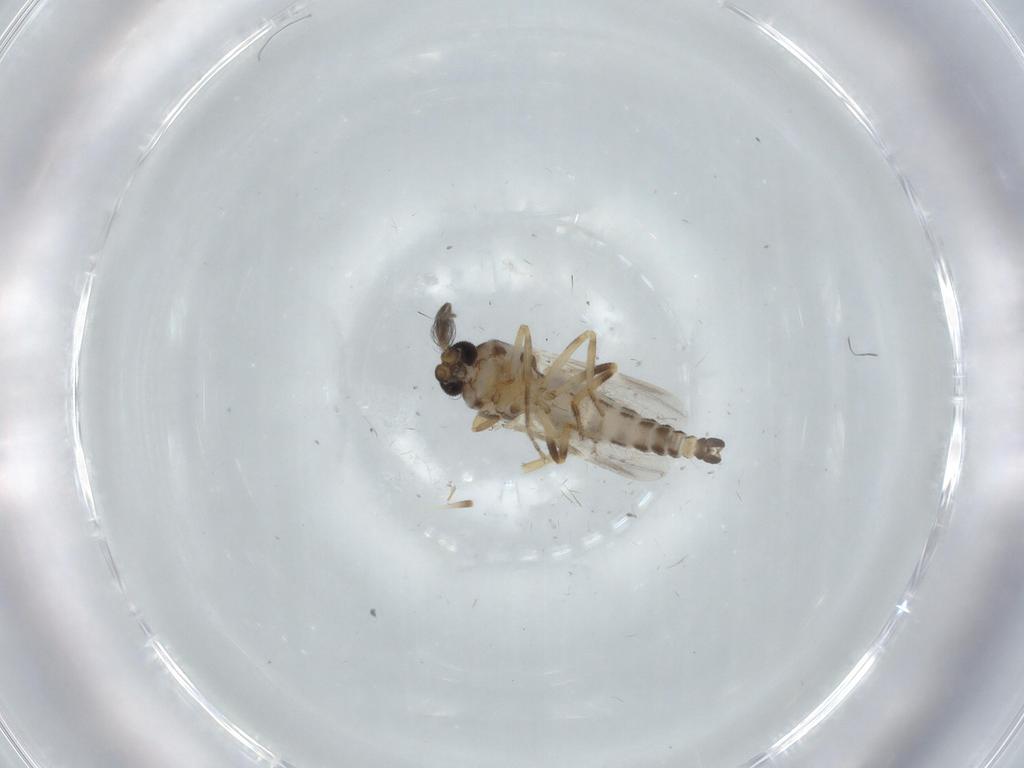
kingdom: Animalia
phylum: Arthropoda
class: Insecta
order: Diptera
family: Ceratopogonidae
